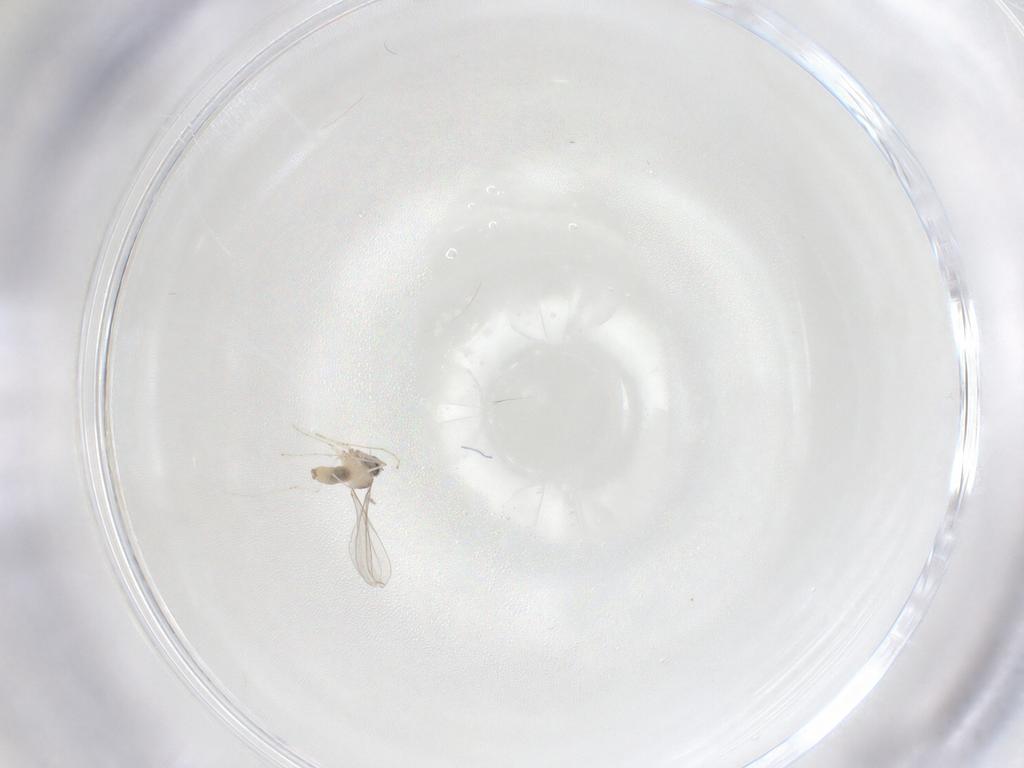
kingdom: Animalia
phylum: Arthropoda
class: Insecta
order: Diptera
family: Cecidomyiidae
